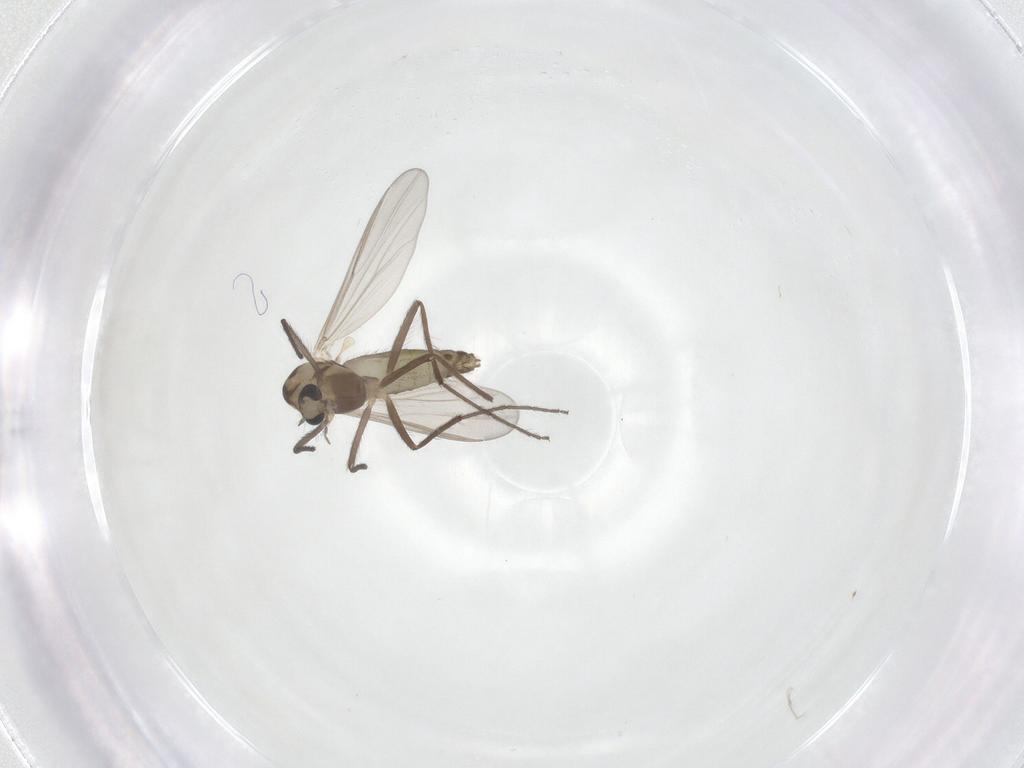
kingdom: Animalia
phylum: Arthropoda
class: Insecta
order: Diptera
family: Chironomidae
